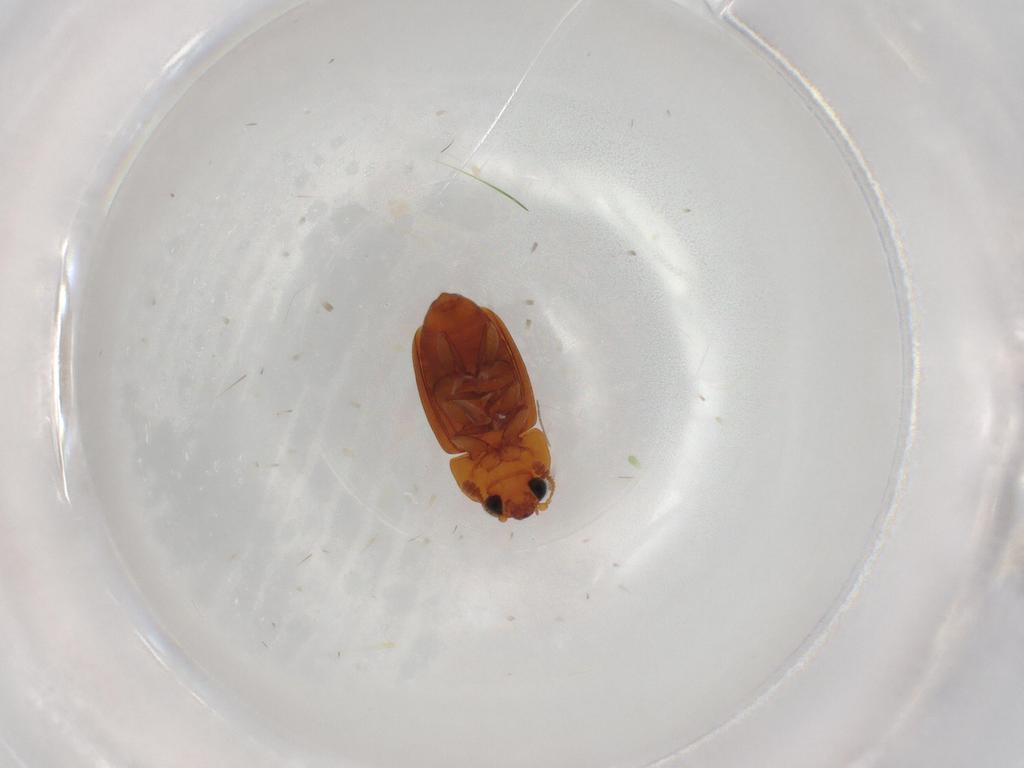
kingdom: Animalia
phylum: Arthropoda
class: Insecta
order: Coleoptera
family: Nitidulidae
